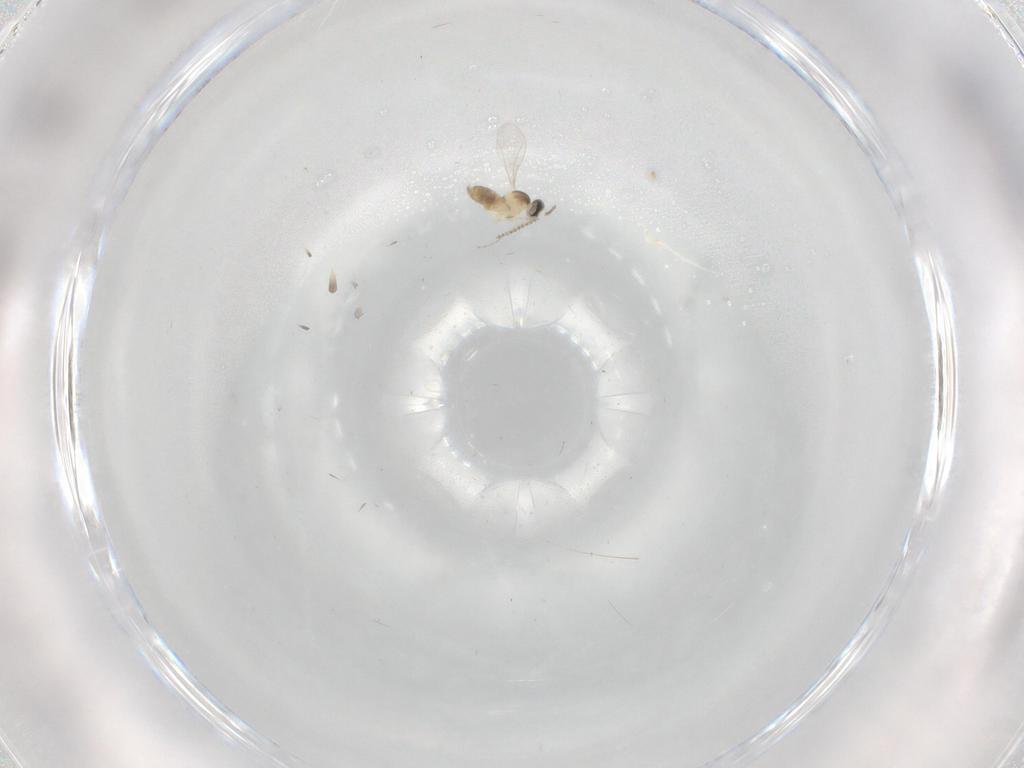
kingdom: Animalia
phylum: Arthropoda
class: Insecta
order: Diptera
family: Cecidomyiidae
